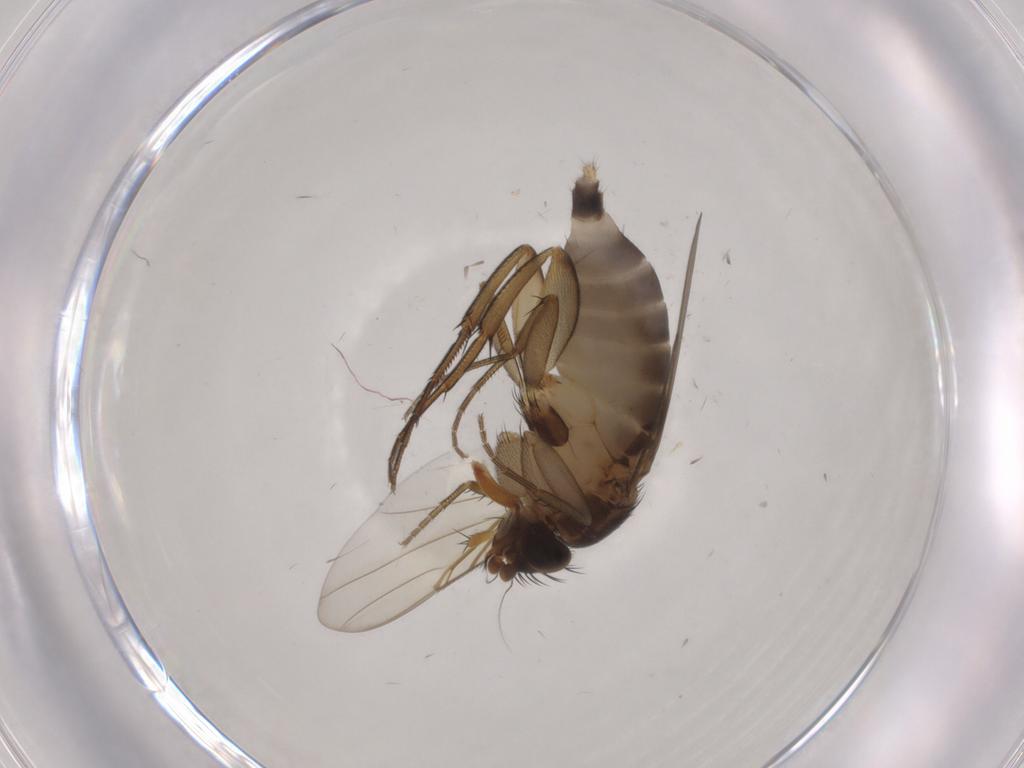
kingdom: Animalia
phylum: Arthropoda
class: Insecta
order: Diptera
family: Phoridae
